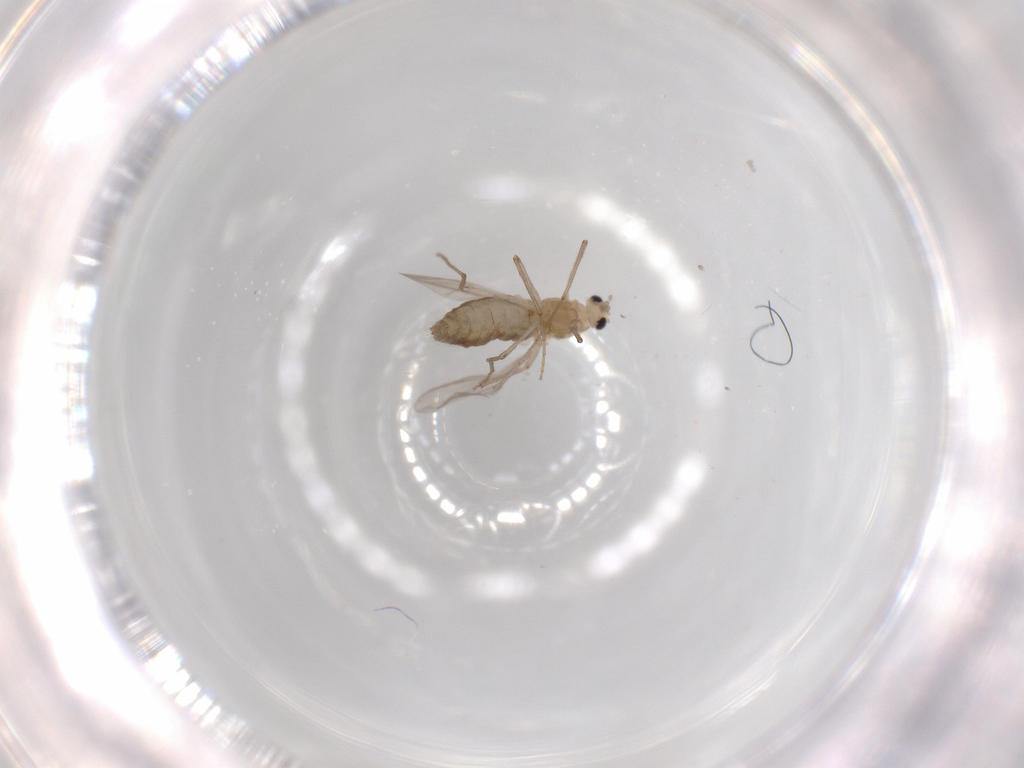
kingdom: Animalia
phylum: Arthropoda
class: Insecta
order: Diptera
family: Chironomidae
